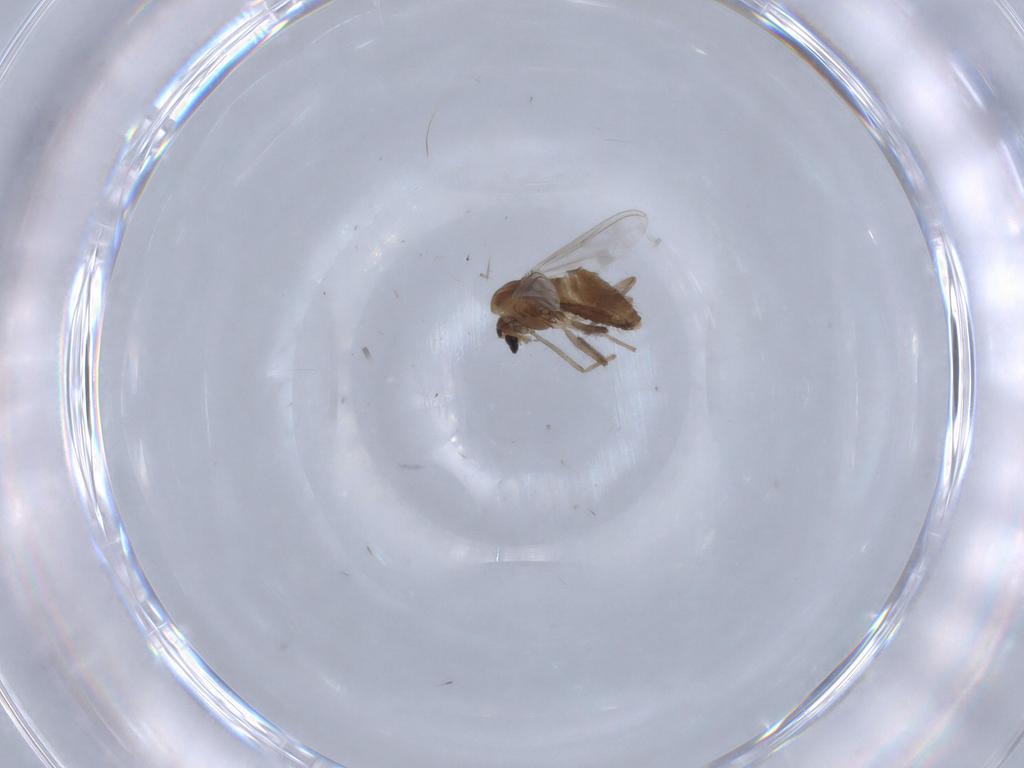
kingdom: Animalia
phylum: Arthropoda
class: Insecta
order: Diptera
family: Chironomidae
